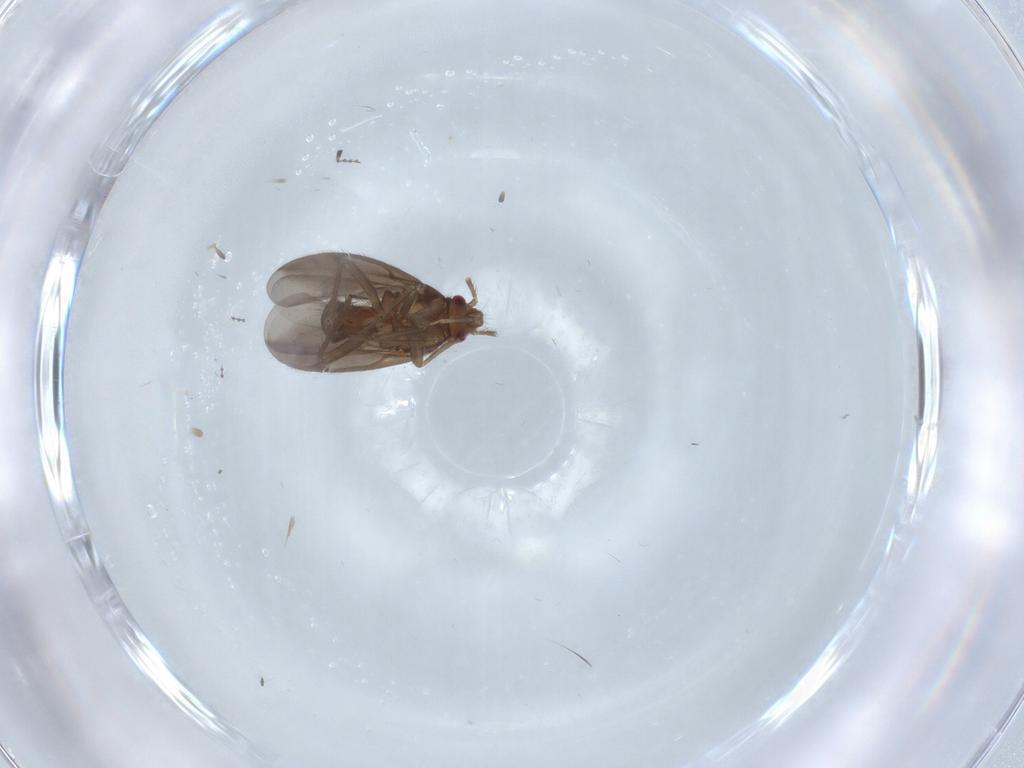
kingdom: Animalia
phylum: Arthropoda
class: Insecta
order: Hemiptera
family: Ceratocombidae
